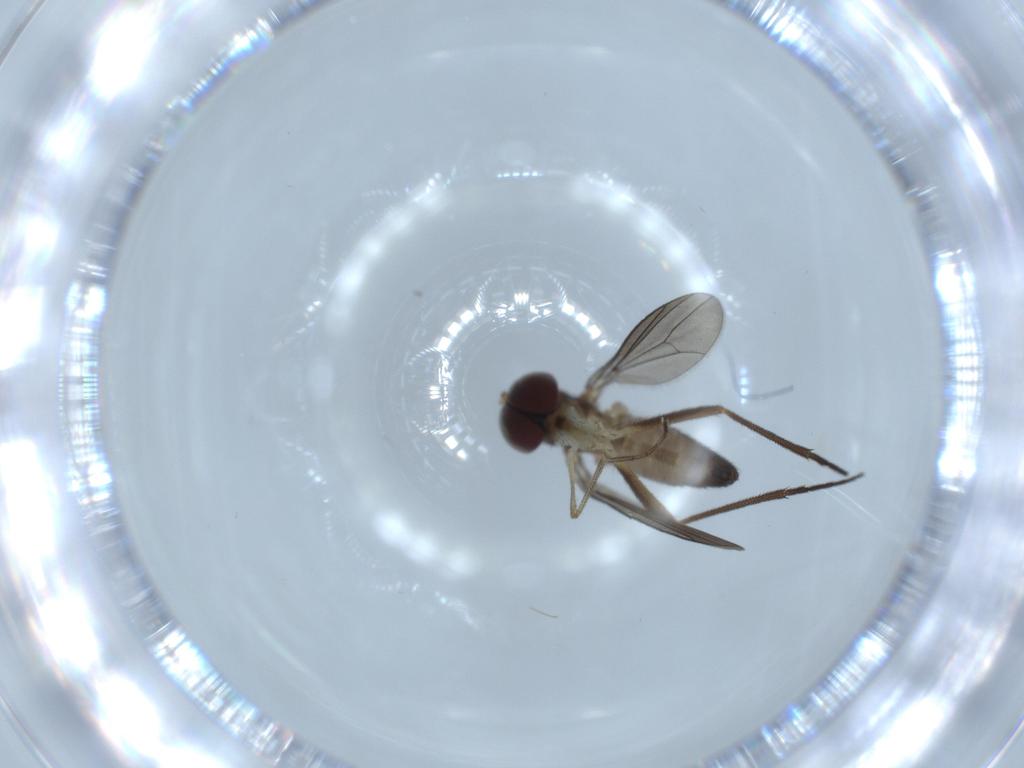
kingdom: Animalia
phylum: Arthropoda
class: Insecta
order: Diptera
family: Dolichopodidae
